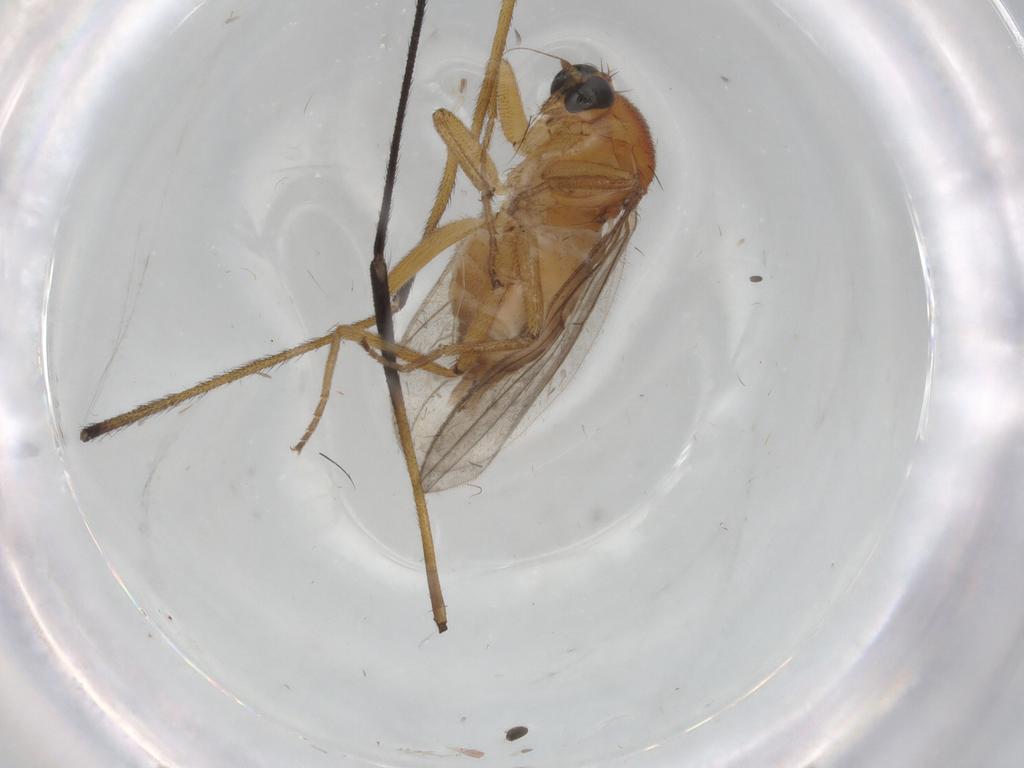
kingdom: Animalia
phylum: Arthropoda
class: Insecta
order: Diptera
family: Hybotidae
